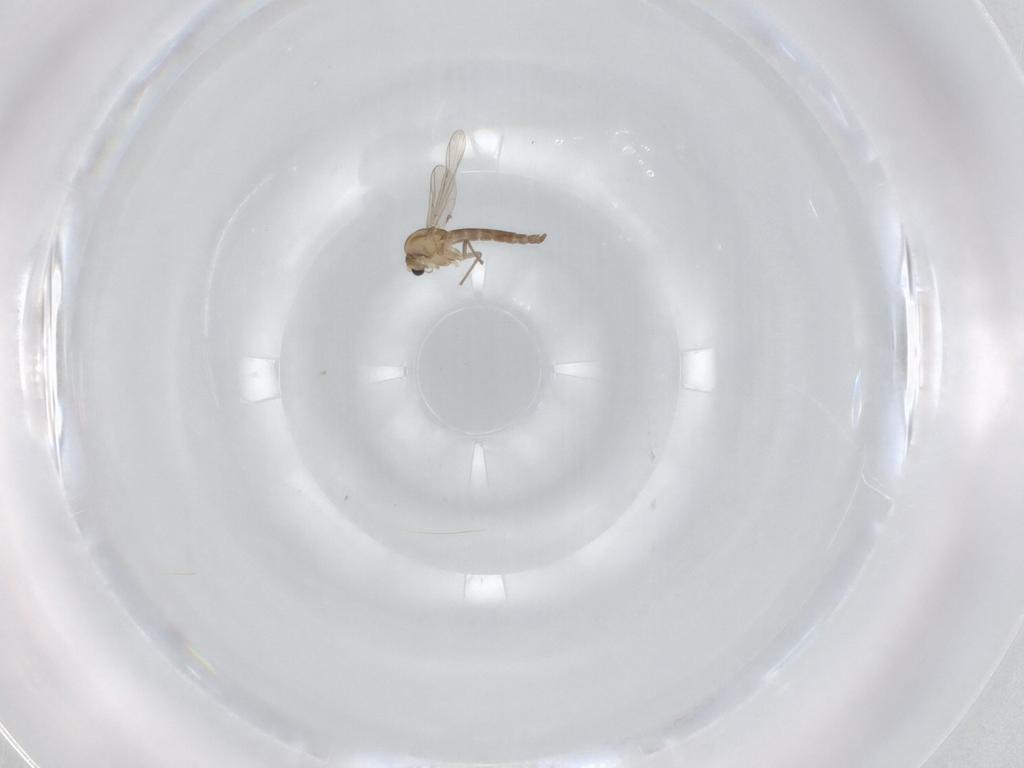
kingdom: Animalia
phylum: Arthropoda
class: Insecta
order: Diptera
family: Chironomidae
